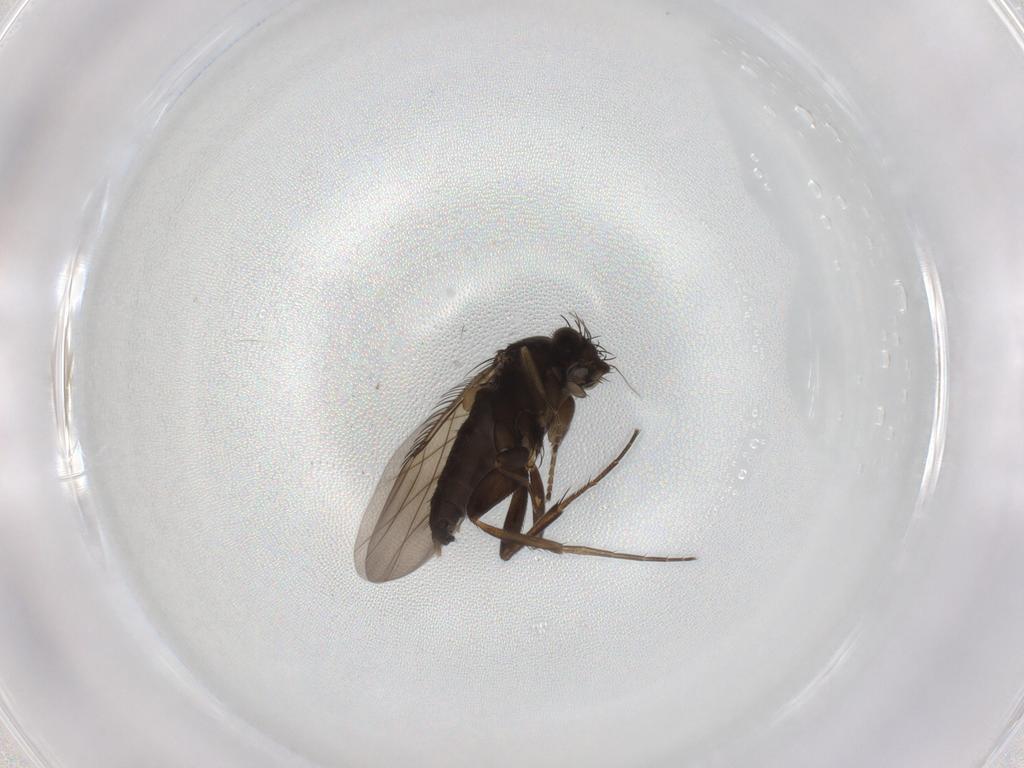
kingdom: Animalia
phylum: Arthropoda
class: Insecta
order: Diptera
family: Phoridae
